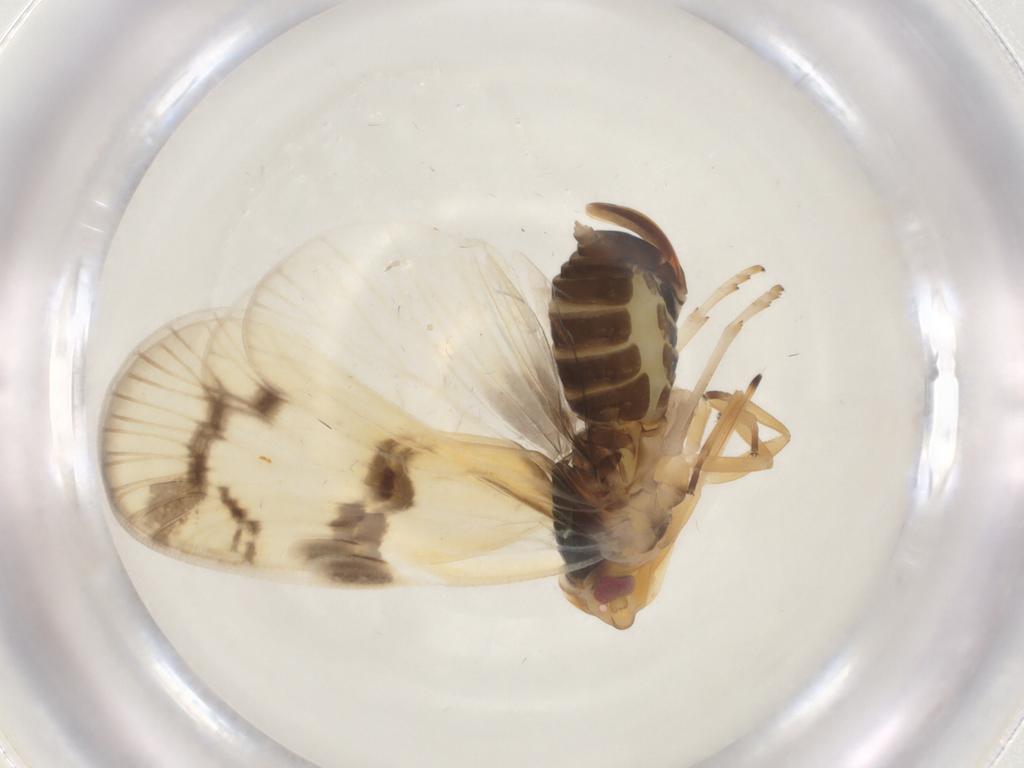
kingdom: Animalia
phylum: Arthropoda
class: Insecta
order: Hemiptera
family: Cixiidae
